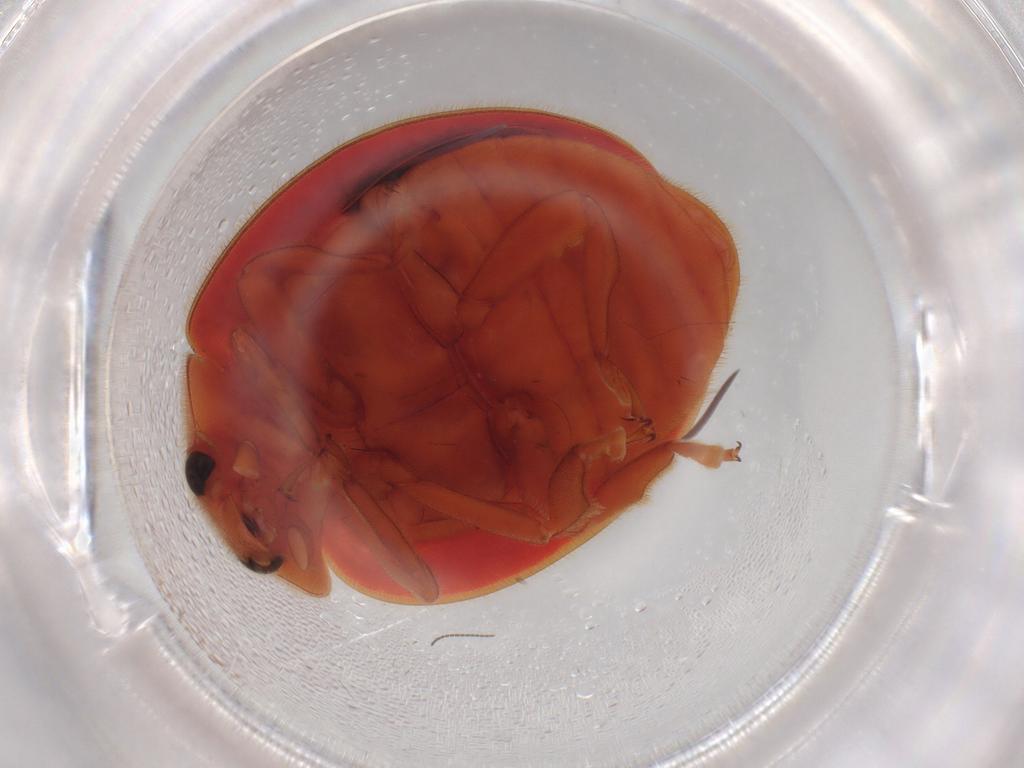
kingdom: Animalia
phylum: Arthropoda
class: Insecta
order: Coleoptera
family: Coccinellidae
